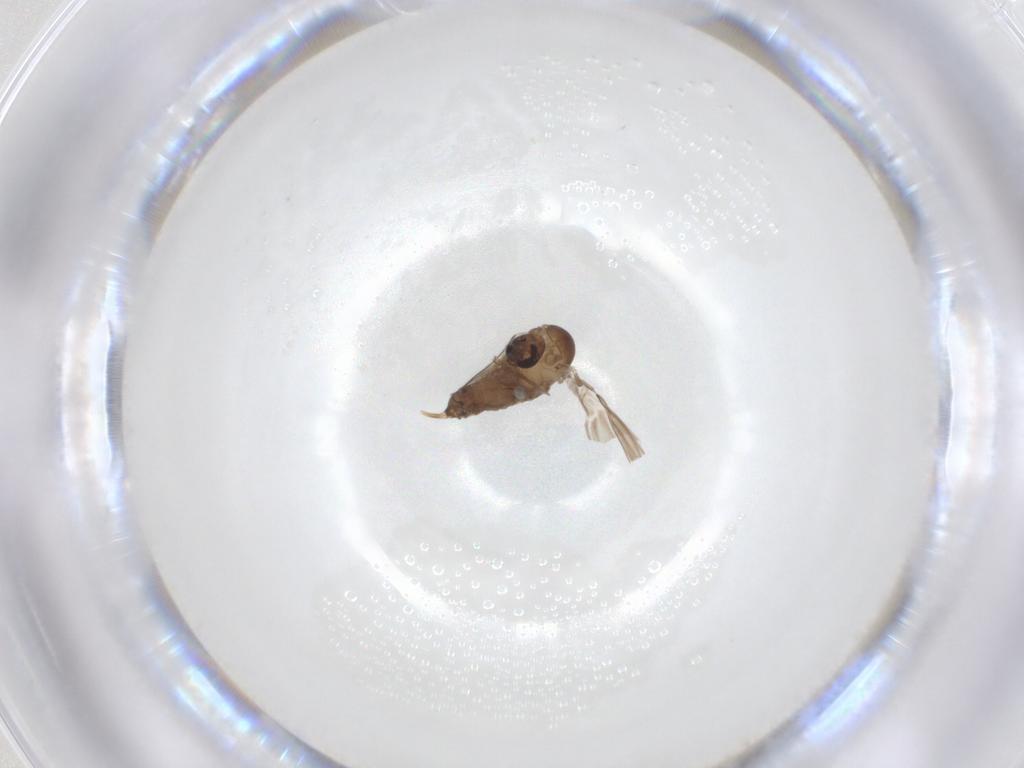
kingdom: Animalia
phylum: Arthropoda
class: Insecta
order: Diptera
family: Psychodidae
